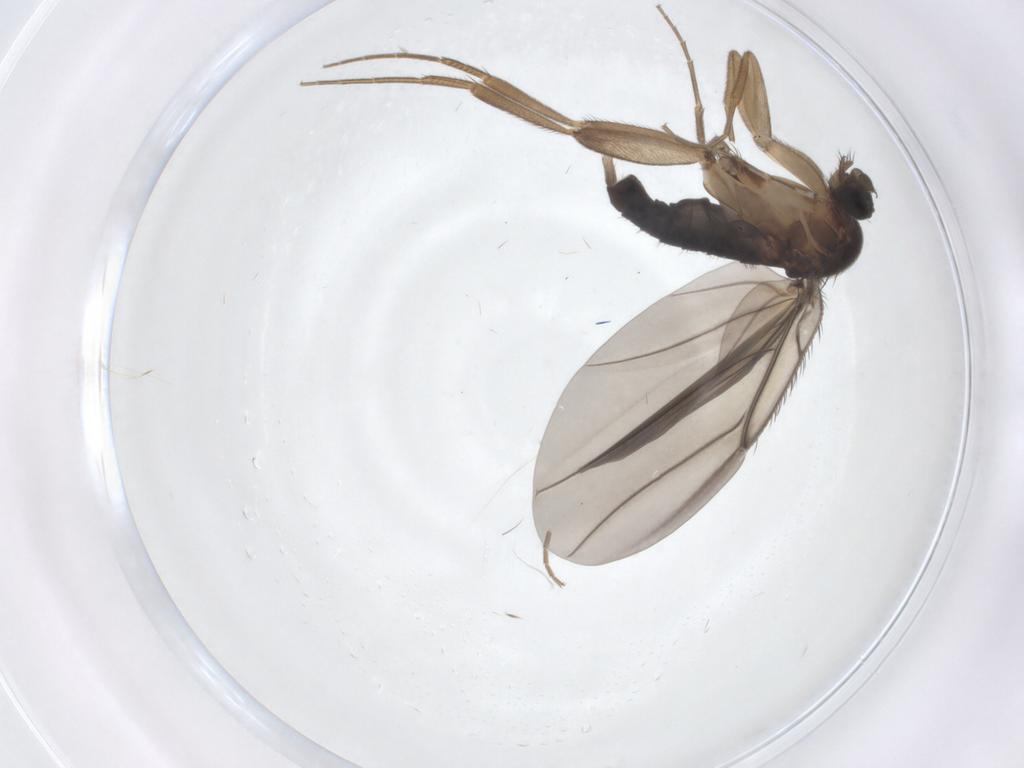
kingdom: Animalia
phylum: Arthropoda
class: Insecta
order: Diptera
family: Phoridae
